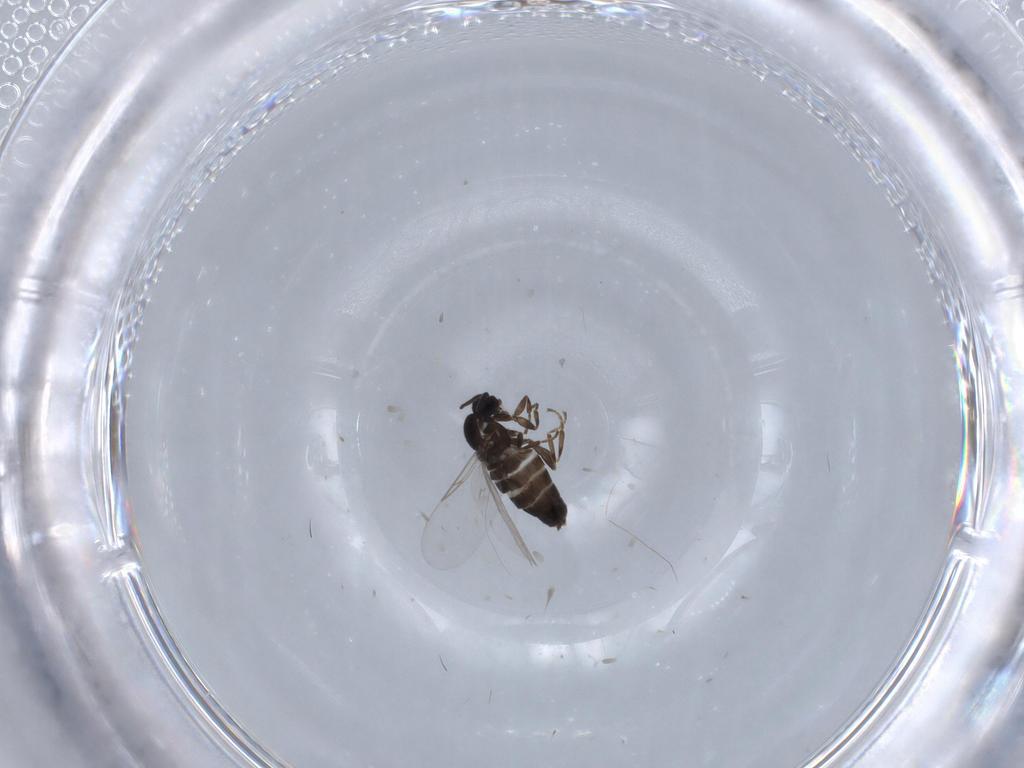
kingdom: Animalia
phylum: Arthropoda
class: Insecta
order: Diptera
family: Scatopsidae
